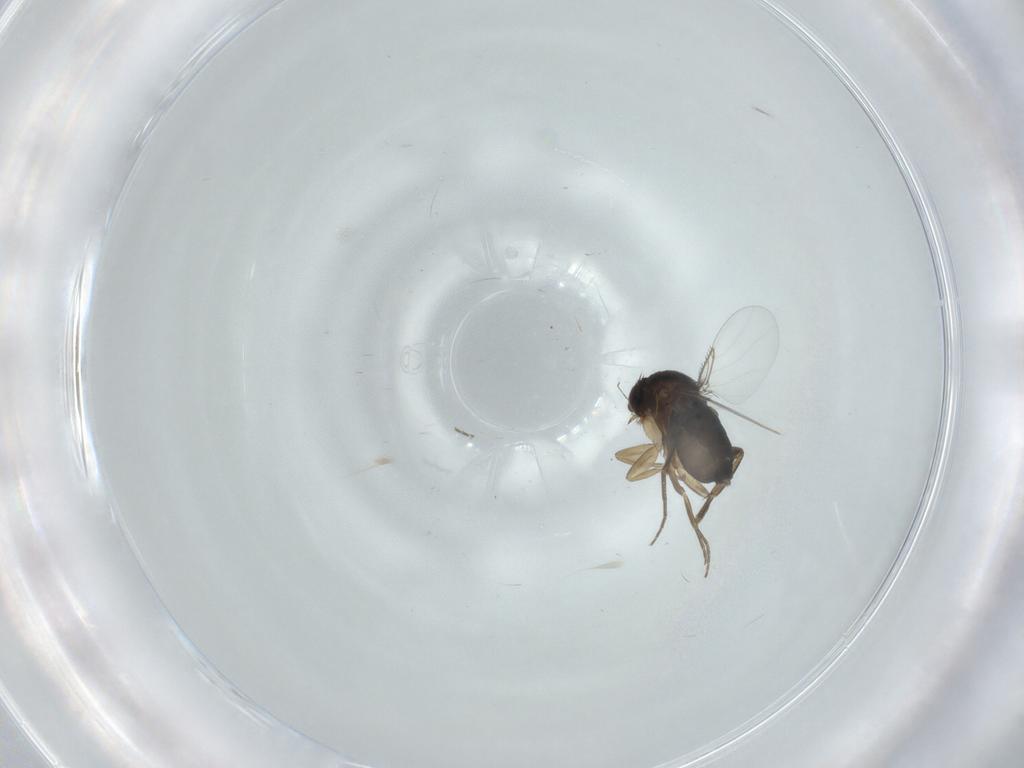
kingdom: Animalia
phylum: Arthropoda
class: Insecta
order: Diptera
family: Phoridae
